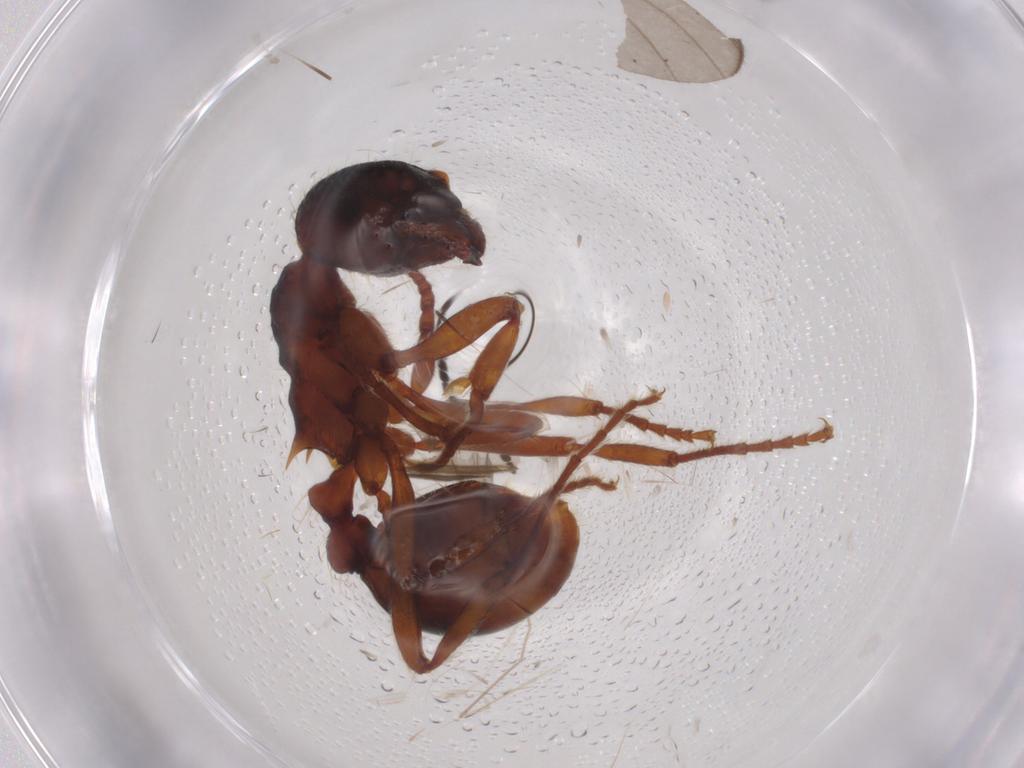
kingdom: Animalia
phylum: Arthropoda
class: Insecta
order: Hymenoptera
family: Formicidae
